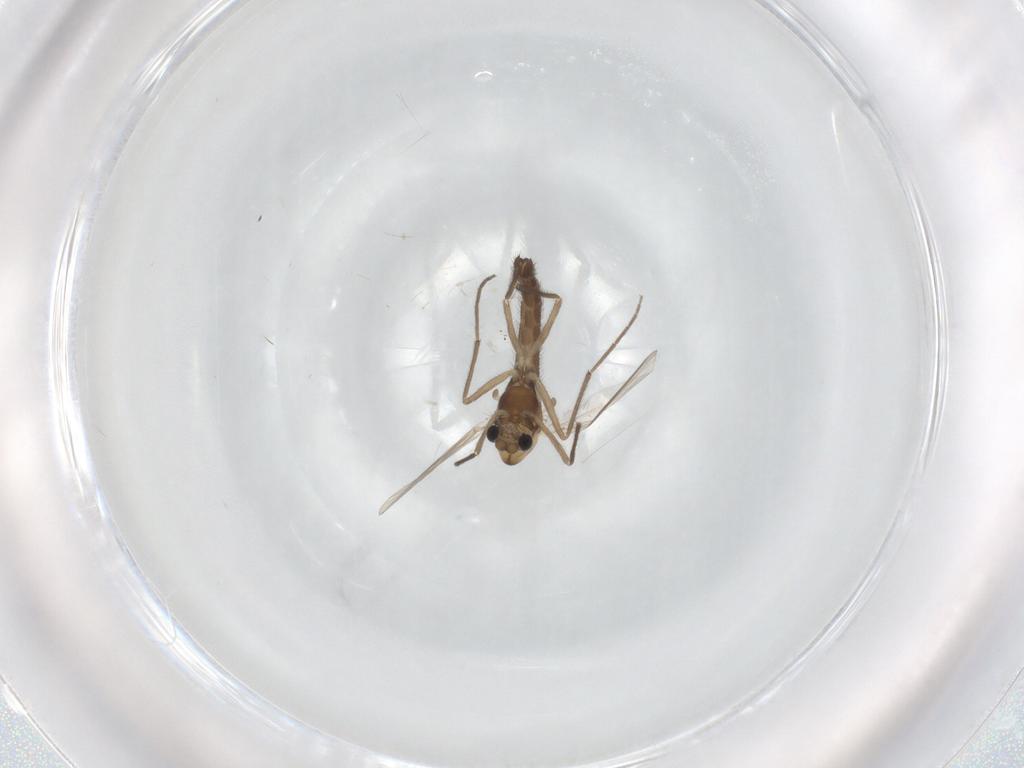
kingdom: Animalia
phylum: Arthropoda
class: Insecta
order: Diptera
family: Chironomidae
